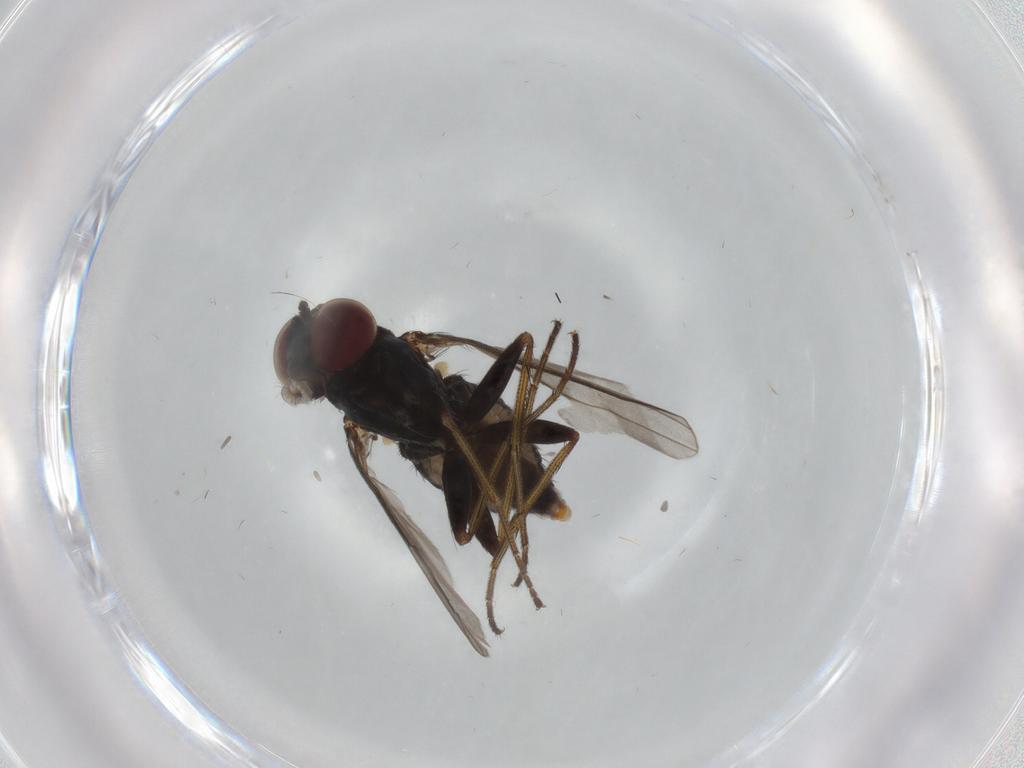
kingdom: Animalia
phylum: Arthropoda
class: Insecta
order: Diptera
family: Dolichopodidae
